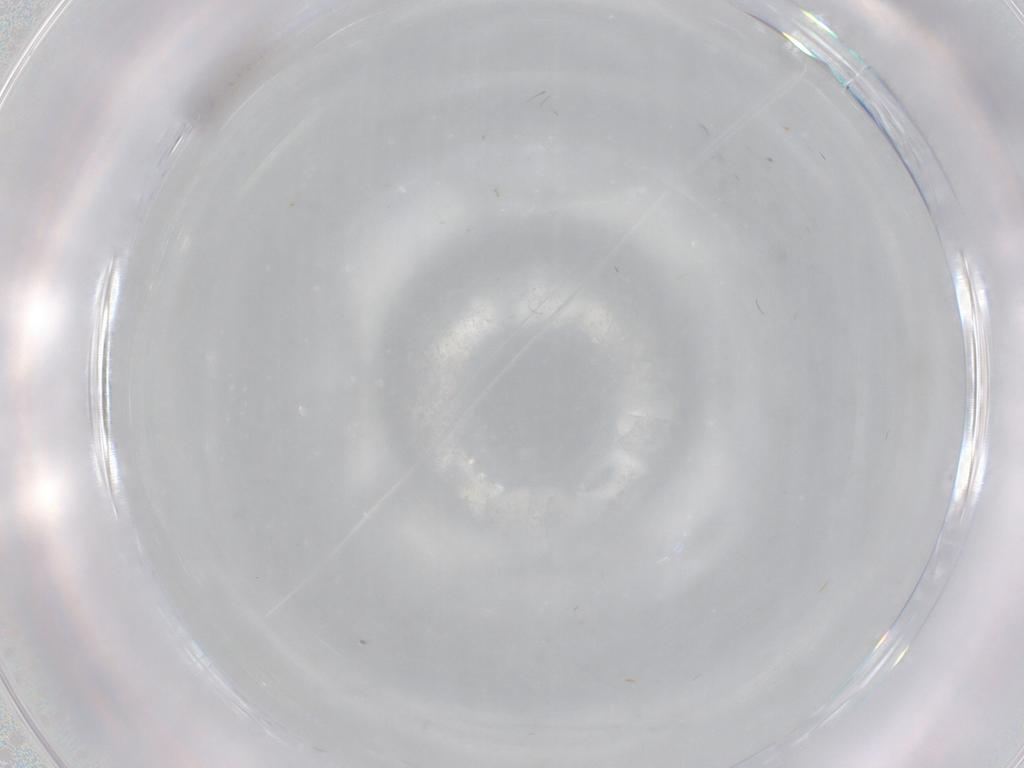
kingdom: Animalia
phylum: Arthropoda
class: Insecta
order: Diptera
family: Cecidomyiidae
